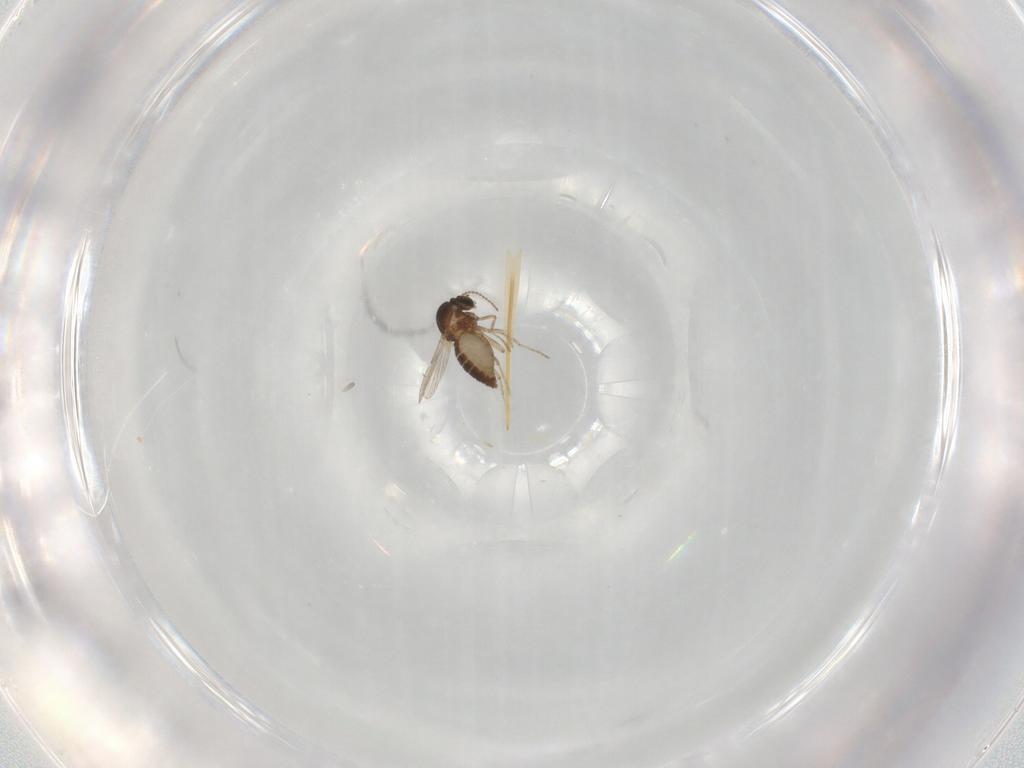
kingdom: Animalia
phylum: Arthropoda
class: Insecta
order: Diptera
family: Ceratopogonidae
